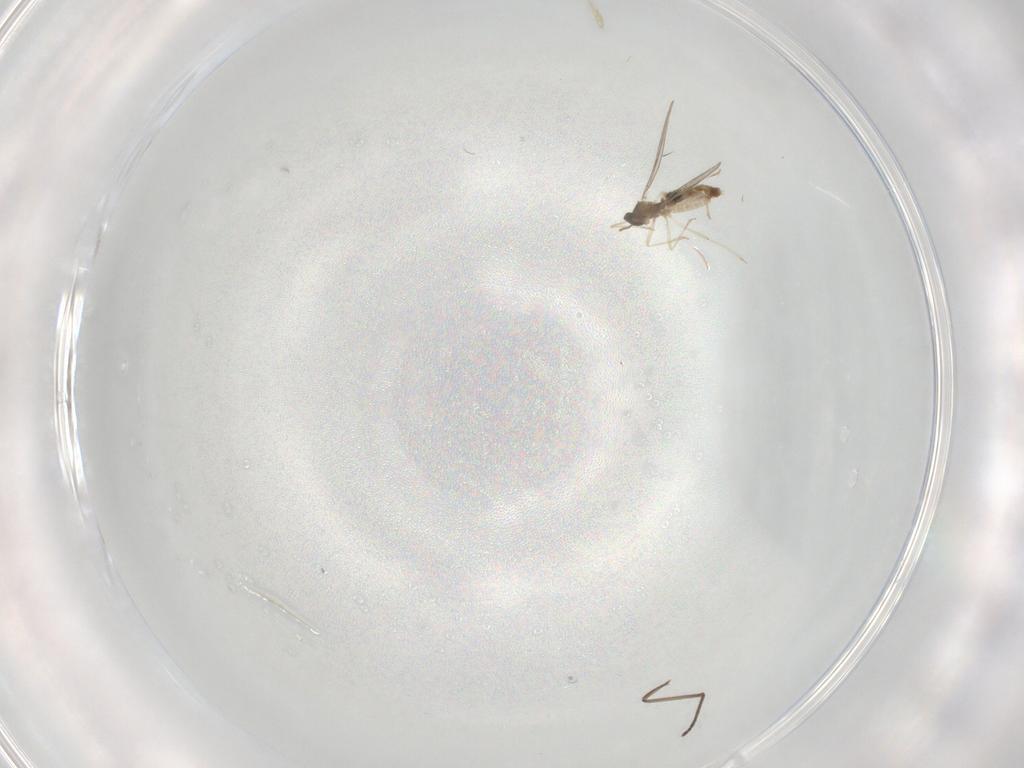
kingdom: Animalia
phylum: Arthropoda
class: Insecta
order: Diptera
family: Cecidomyiidae
